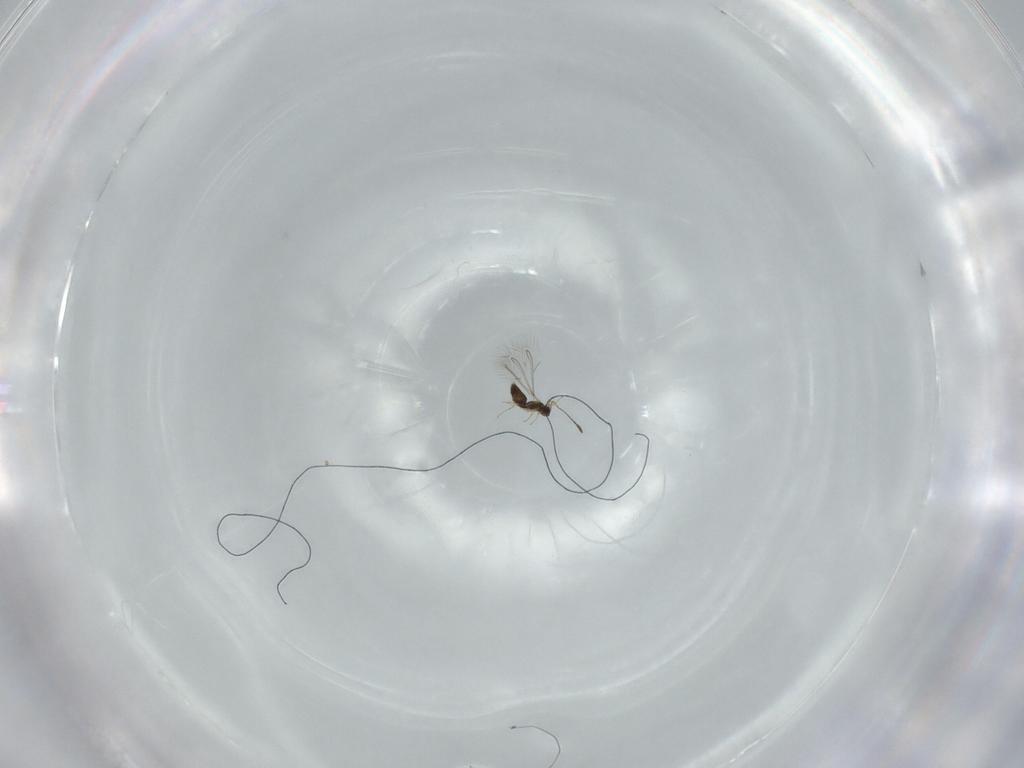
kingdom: Animalia
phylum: Arthropoda
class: Insecta
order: Hymenoptera
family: Mymaridae
